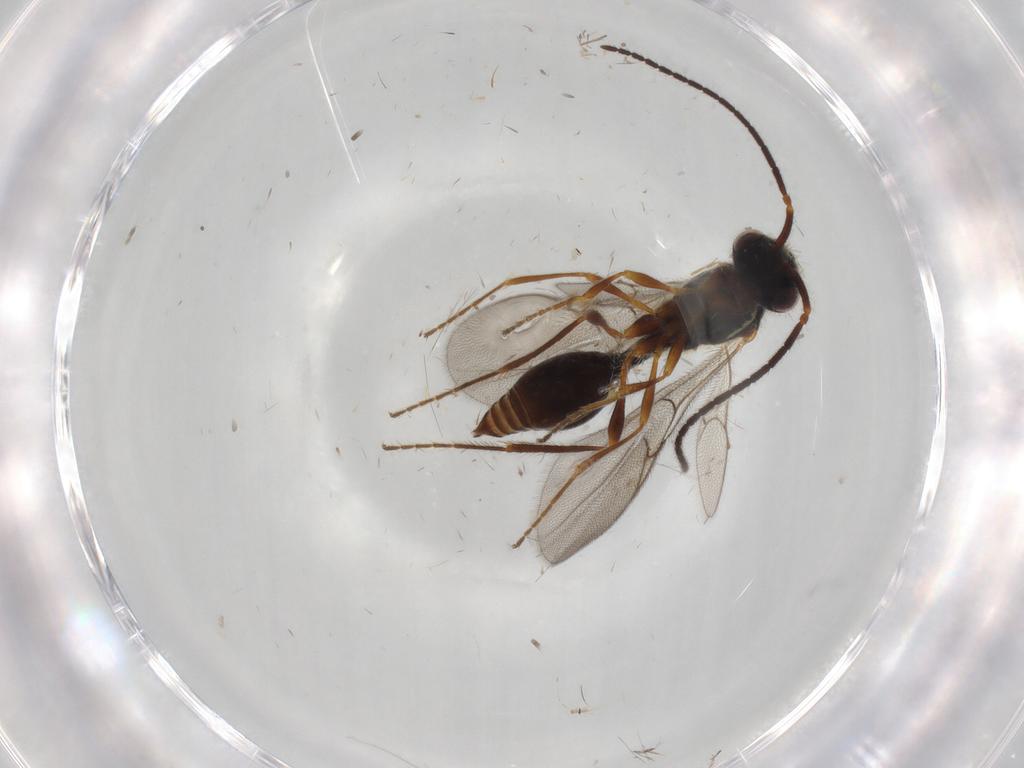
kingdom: Animalia
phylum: Arthropoda
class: Insecta
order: Hymenoptera
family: Diapriidae
